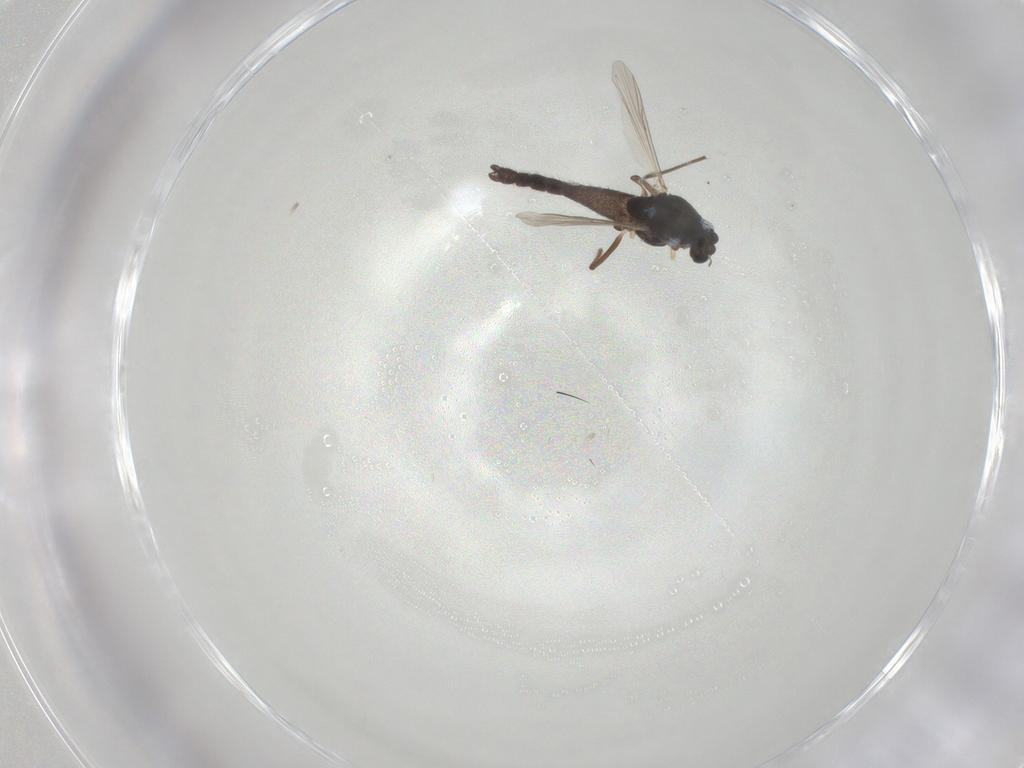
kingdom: Animalia
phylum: Arthropoda
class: Insecta
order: Diptera
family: Chironomidae
